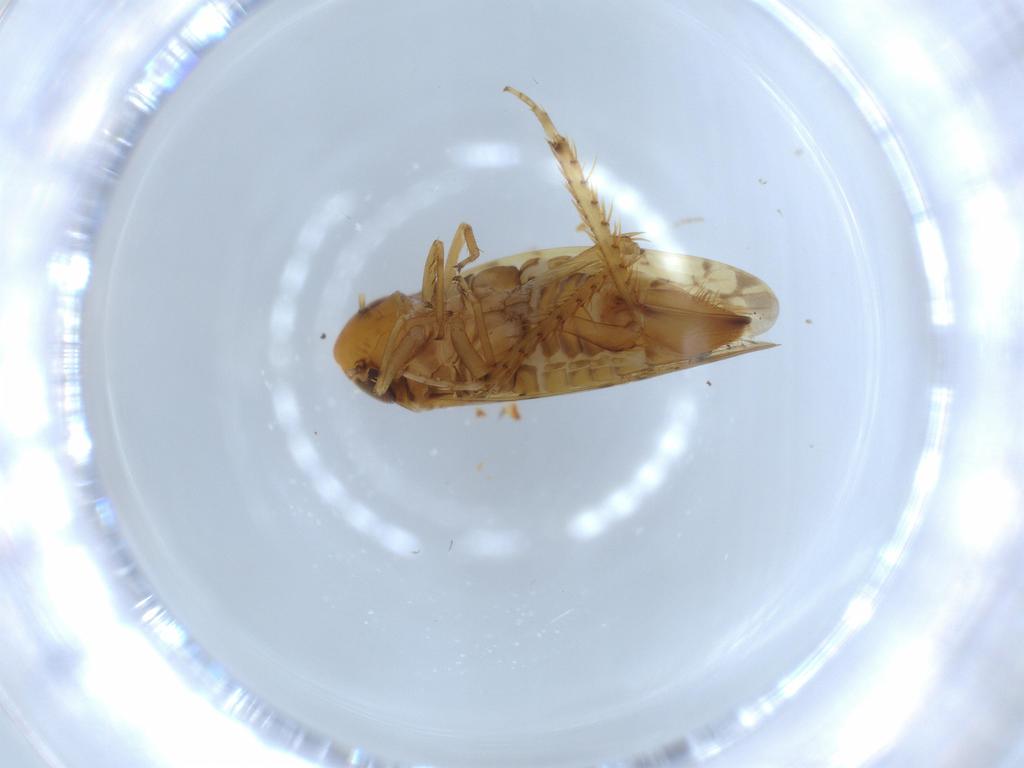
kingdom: Animalia
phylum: Arthropoda
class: Insecta
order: Hemiptera
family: Cicadellidae
